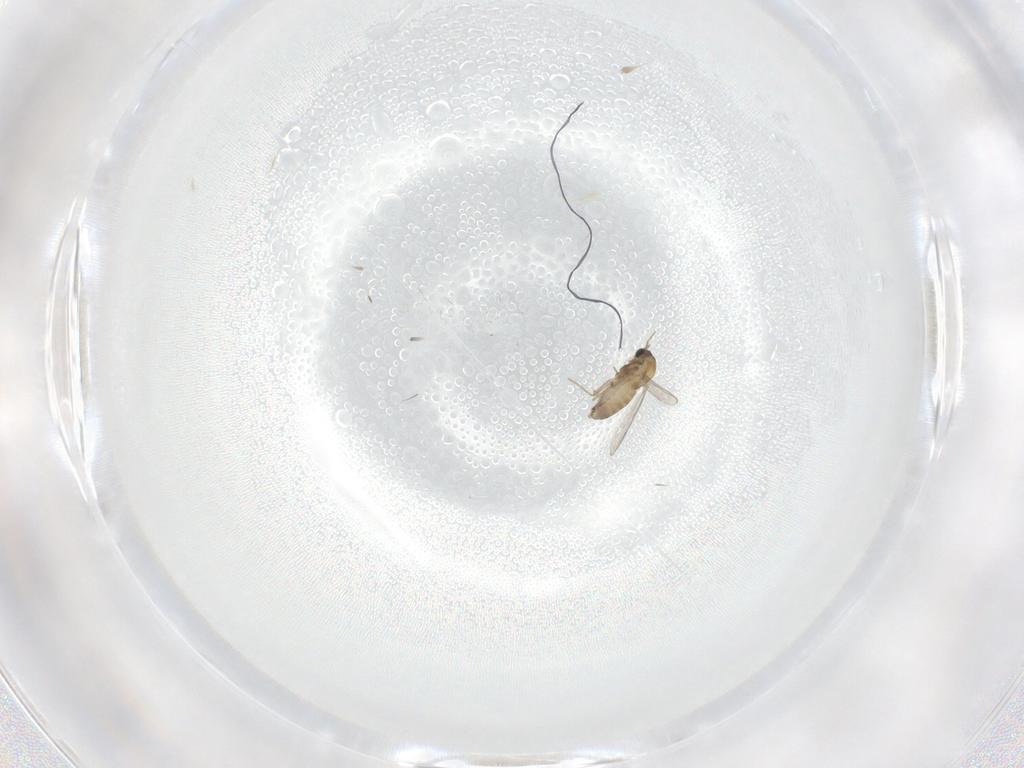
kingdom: Animalia
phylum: Arthropoda
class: Insecta
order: Diptera
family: Chironomidae
